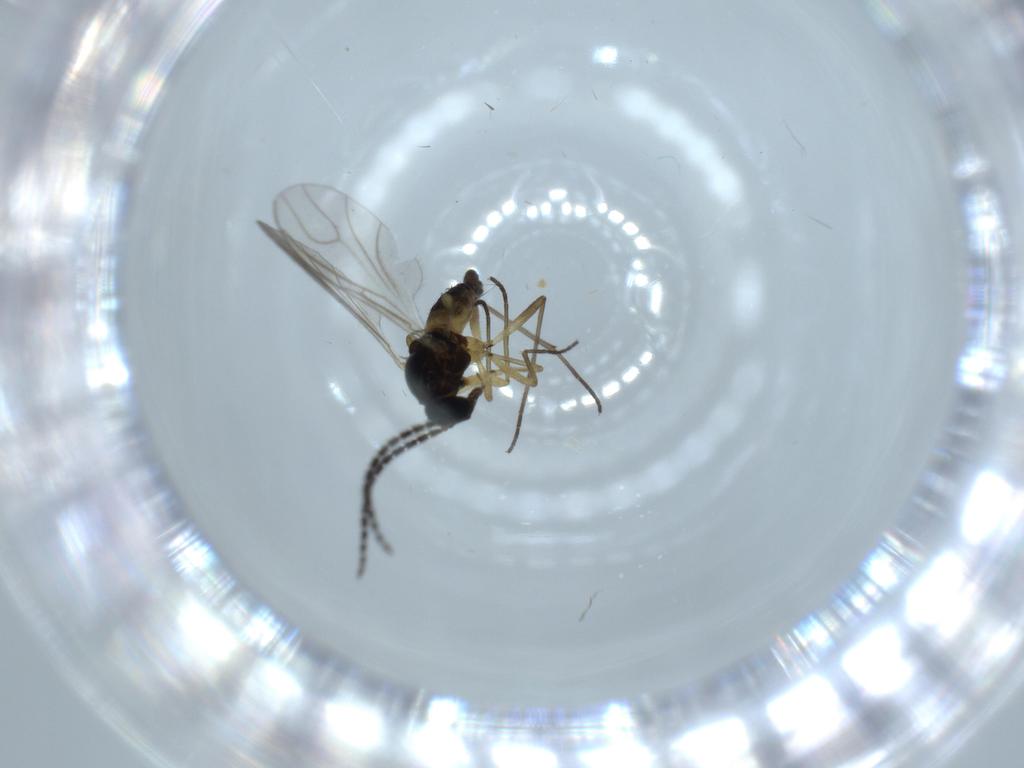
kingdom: Animalia
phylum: Arthropoda
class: Insecta
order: Diptera
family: Sciaridae
